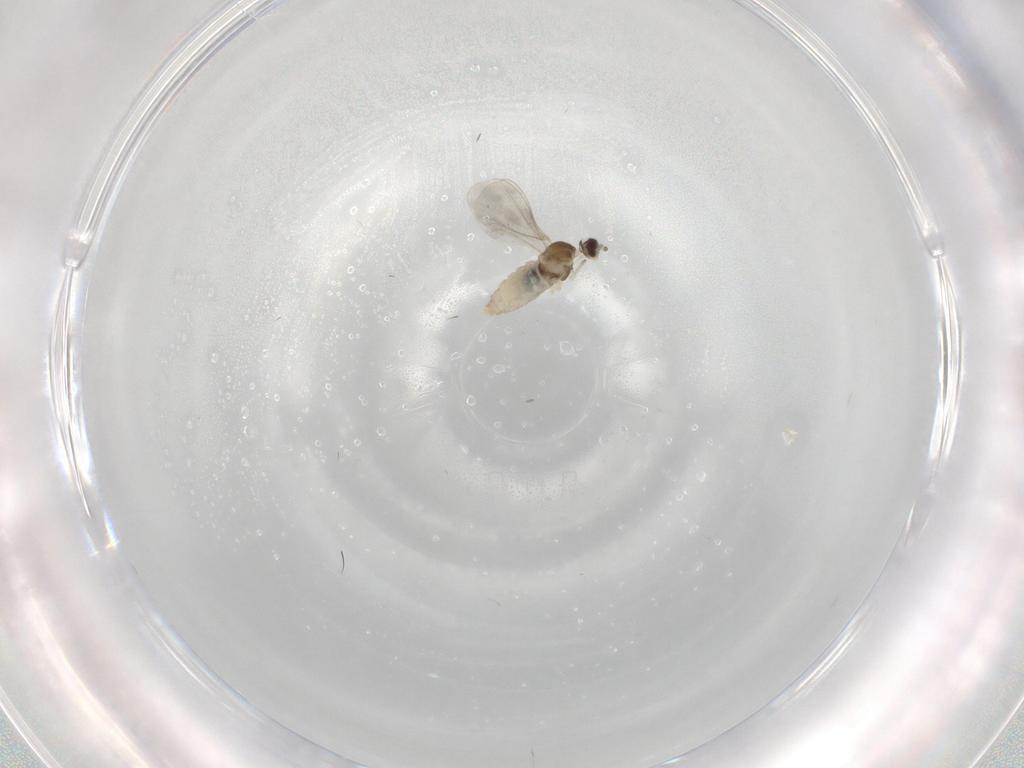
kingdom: Animalia
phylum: Arthropoda
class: Insecta
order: Diptera
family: Cecidomyiidae
